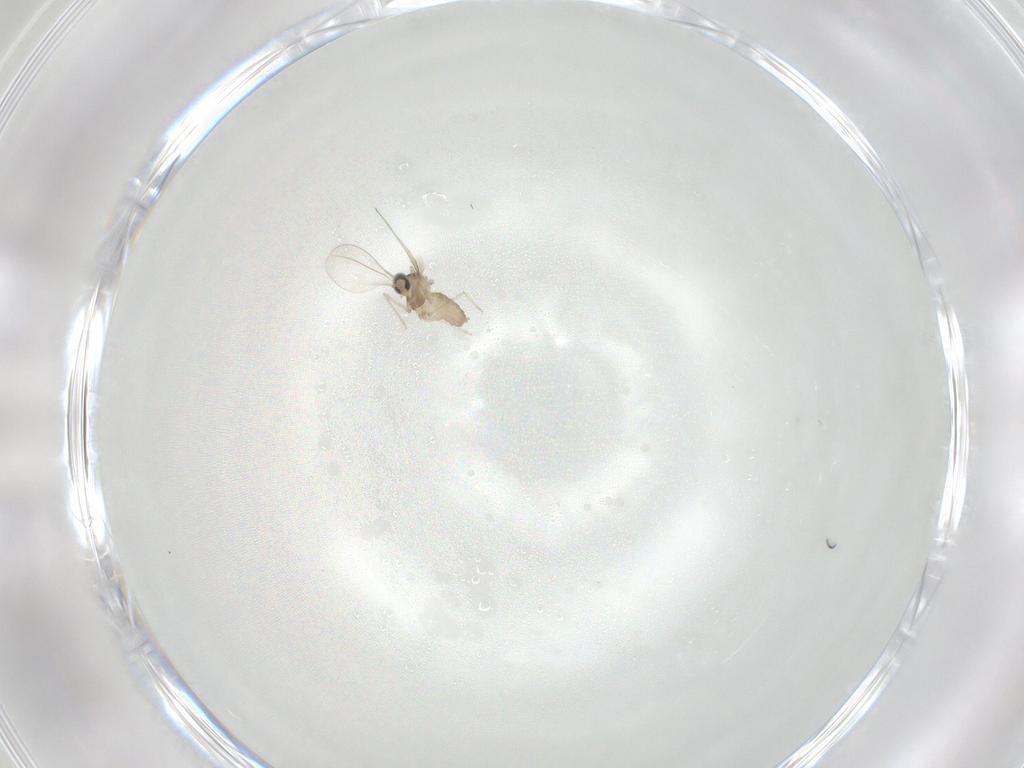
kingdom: Animalia
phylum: Arthropoda
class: Insecta
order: Diptera
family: Cecidomyiidae
